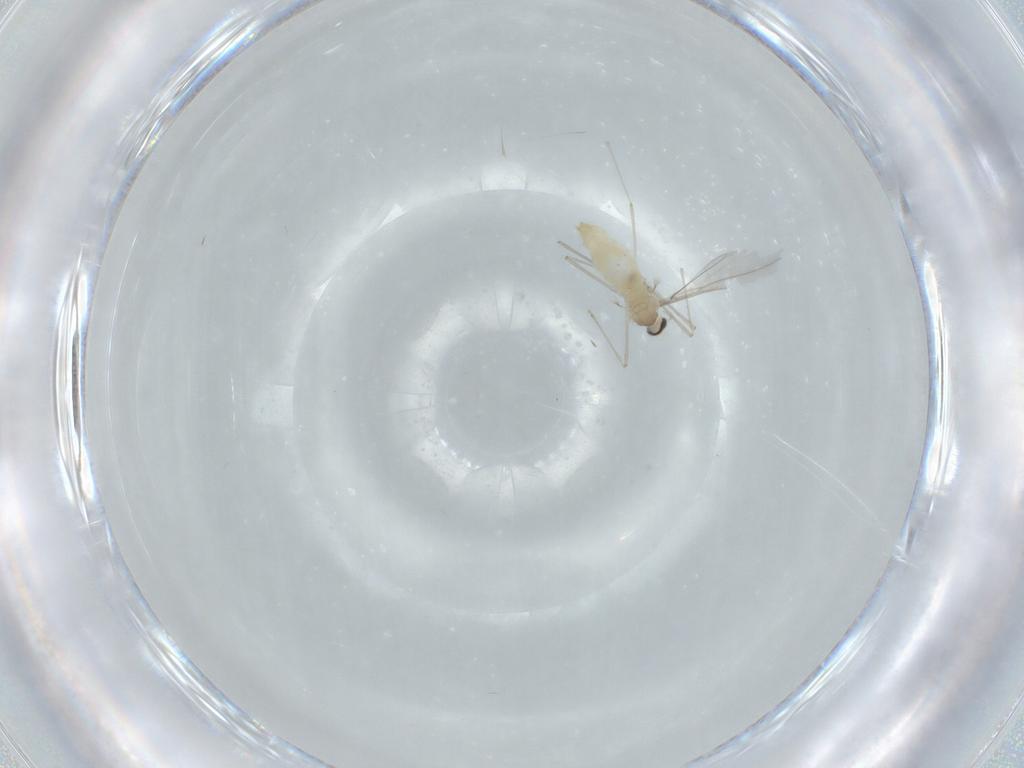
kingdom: Animalia
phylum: Arthropoda
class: Insecta
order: Diptera
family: Cecidomyiidae
